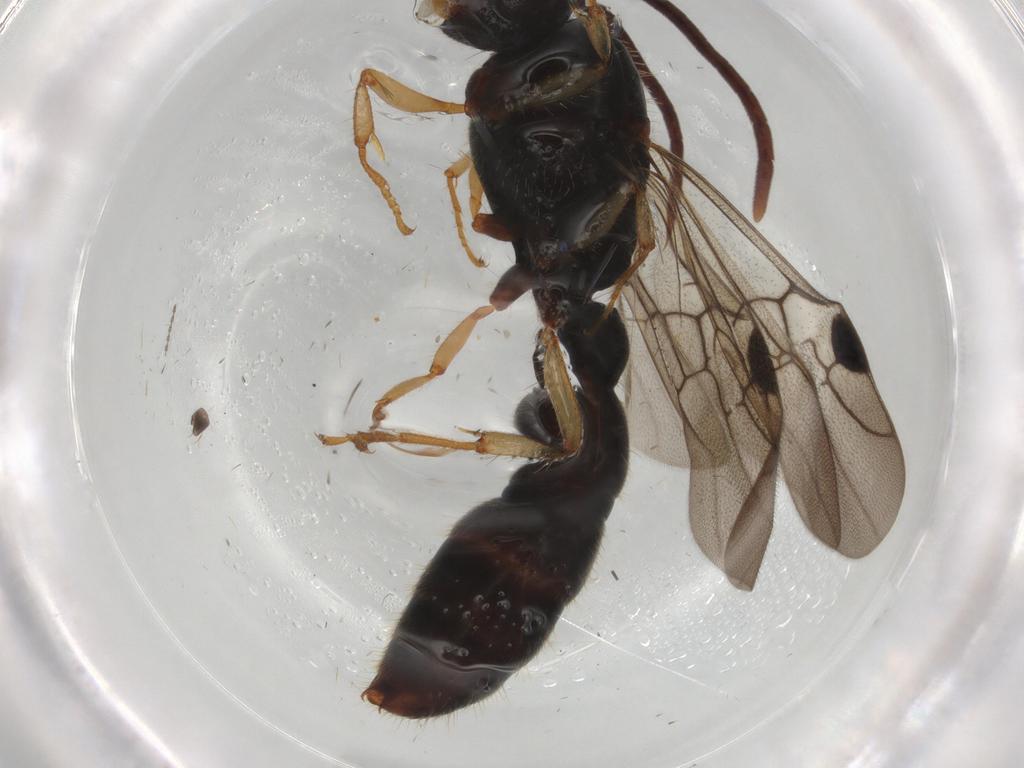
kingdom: Animalia
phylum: Arthropoda
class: Insecta
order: Hymenoptera
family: Formicidae
